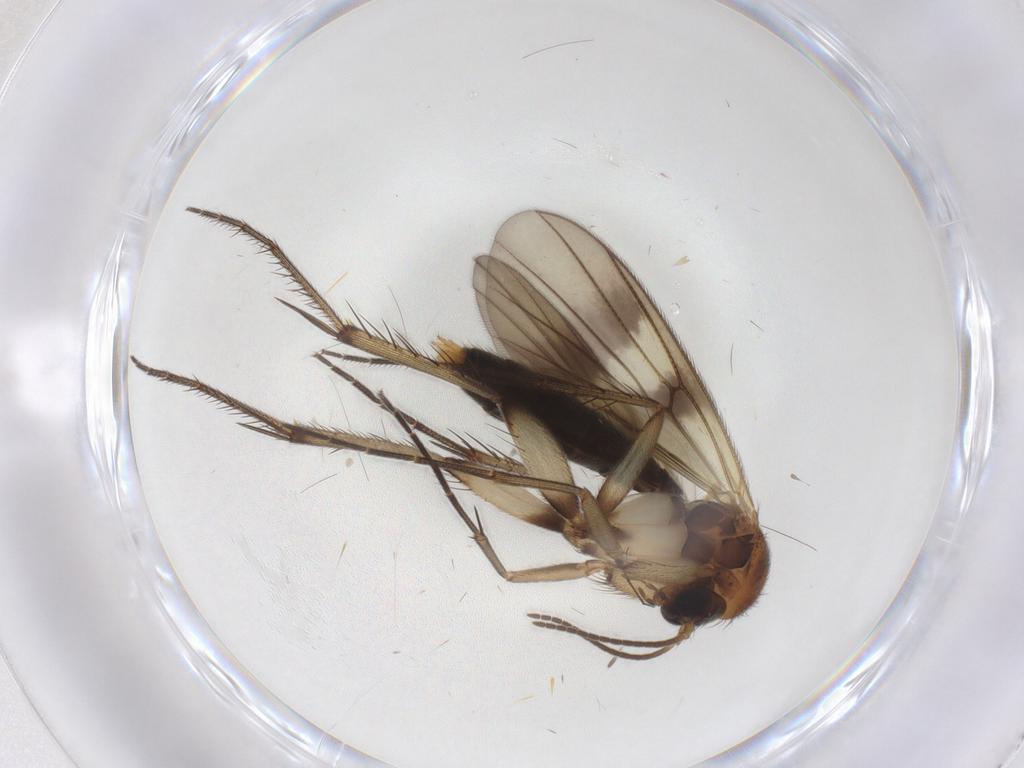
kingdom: Animalia
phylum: Arthropoda
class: Insecta
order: Diptera
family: Mycetophilidae
